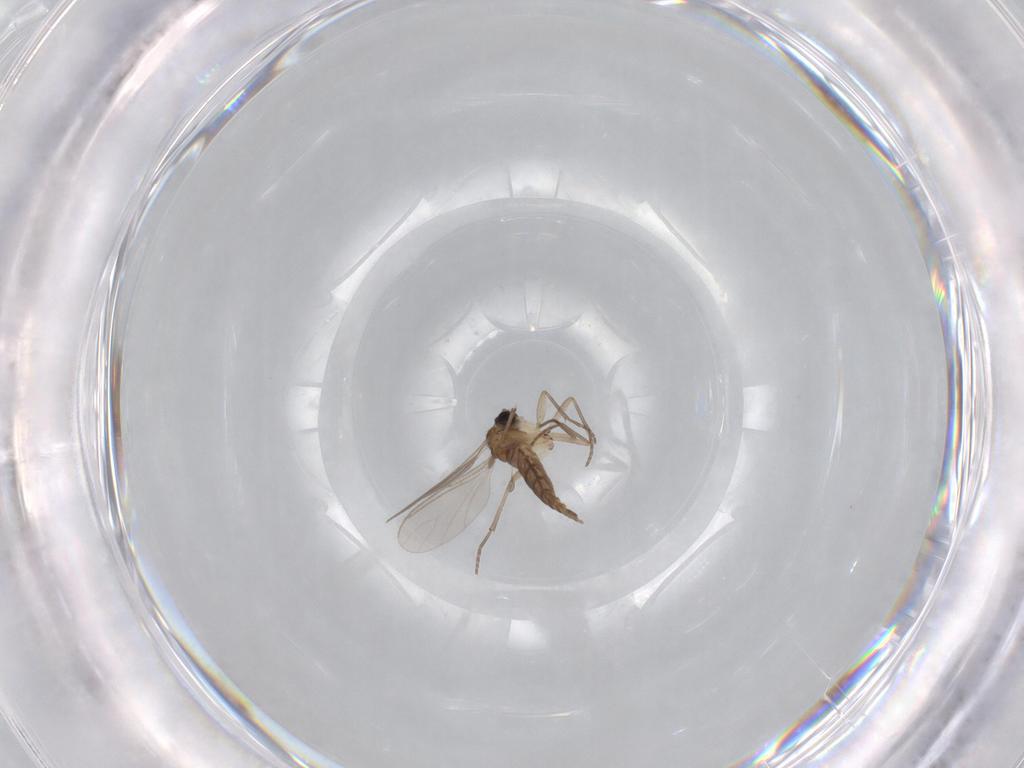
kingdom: Animalia
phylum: Arthropoda
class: Insecta
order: Diptera
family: Sciaridae
